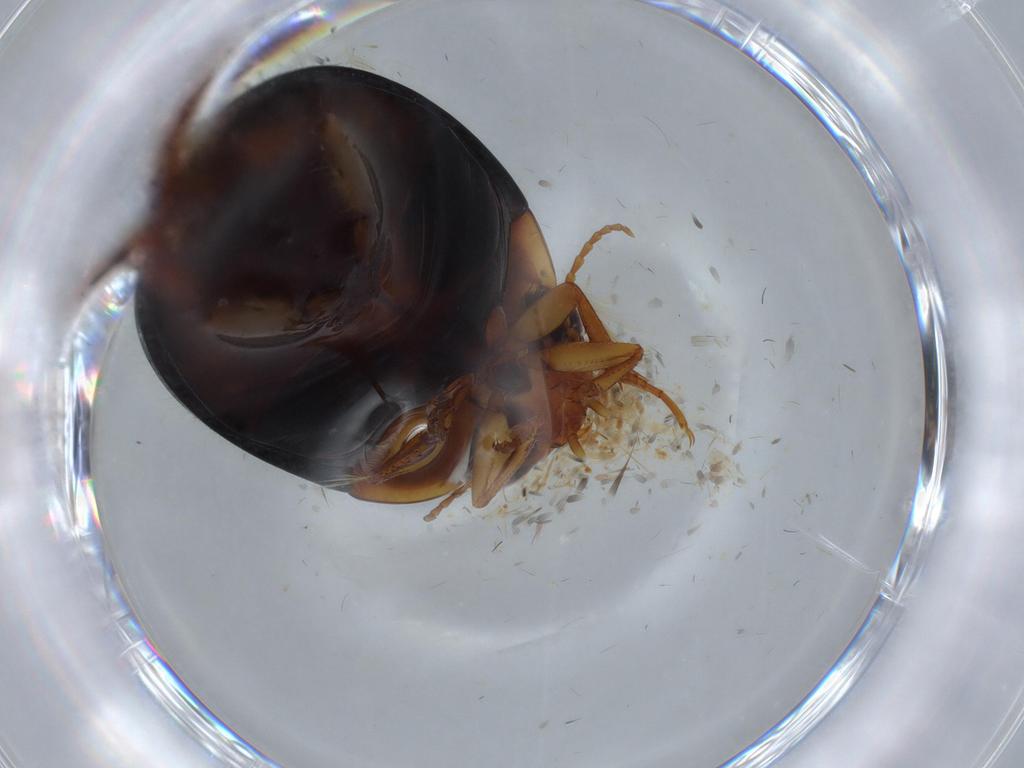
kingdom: Animalia
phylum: Arthropoda
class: Insecta
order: Coleoptera
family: Dytiscidae
